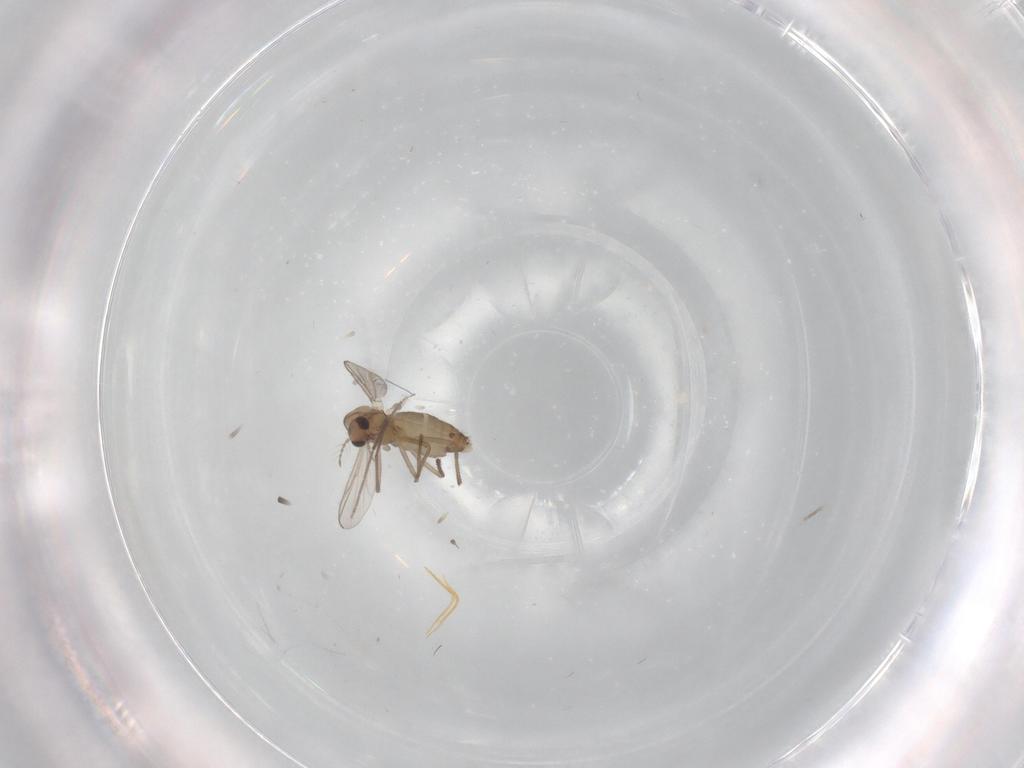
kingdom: Animalia
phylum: Arthropoda
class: Insecta
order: Diptera
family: Chironomidae
